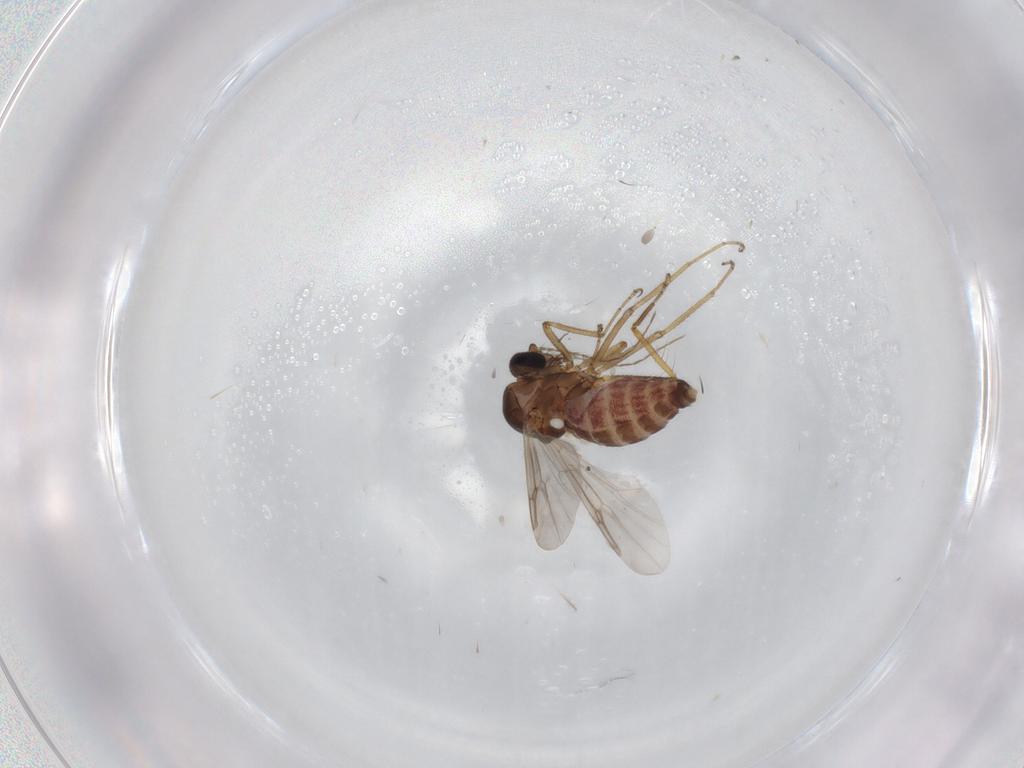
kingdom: Animalia
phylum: Arthropoda
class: Insecta
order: Diptera
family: Ceratopogonidae
